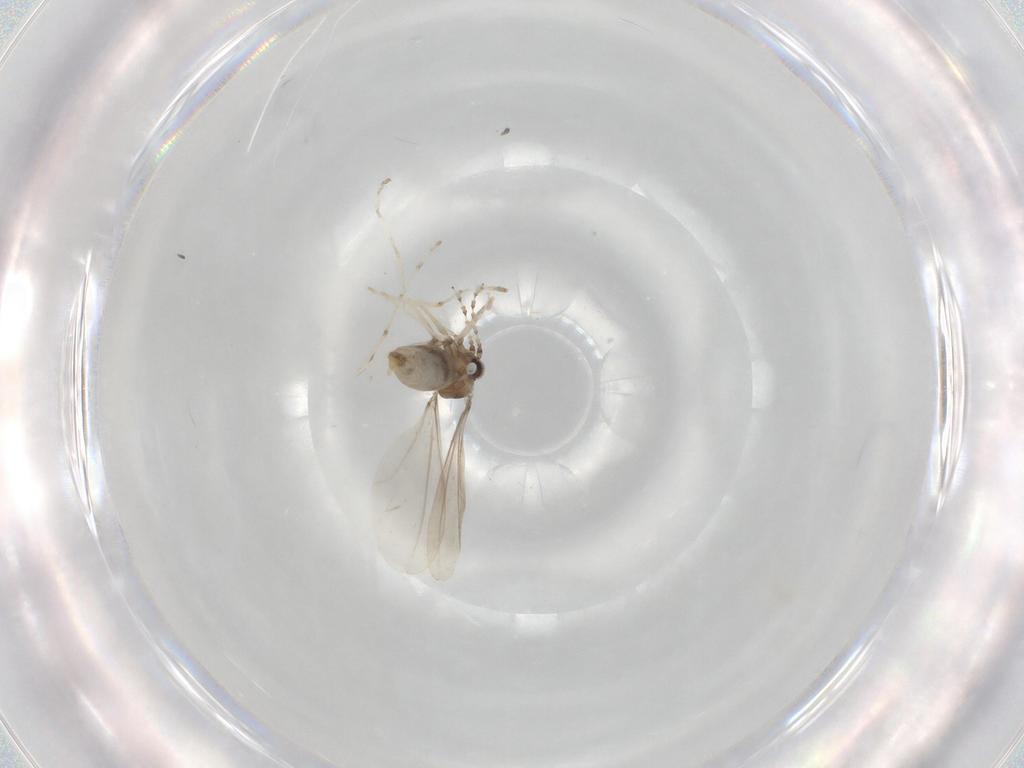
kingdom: Animalia
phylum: Arthropoda
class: Insecta
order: Diptera
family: Cecidomyiidae
